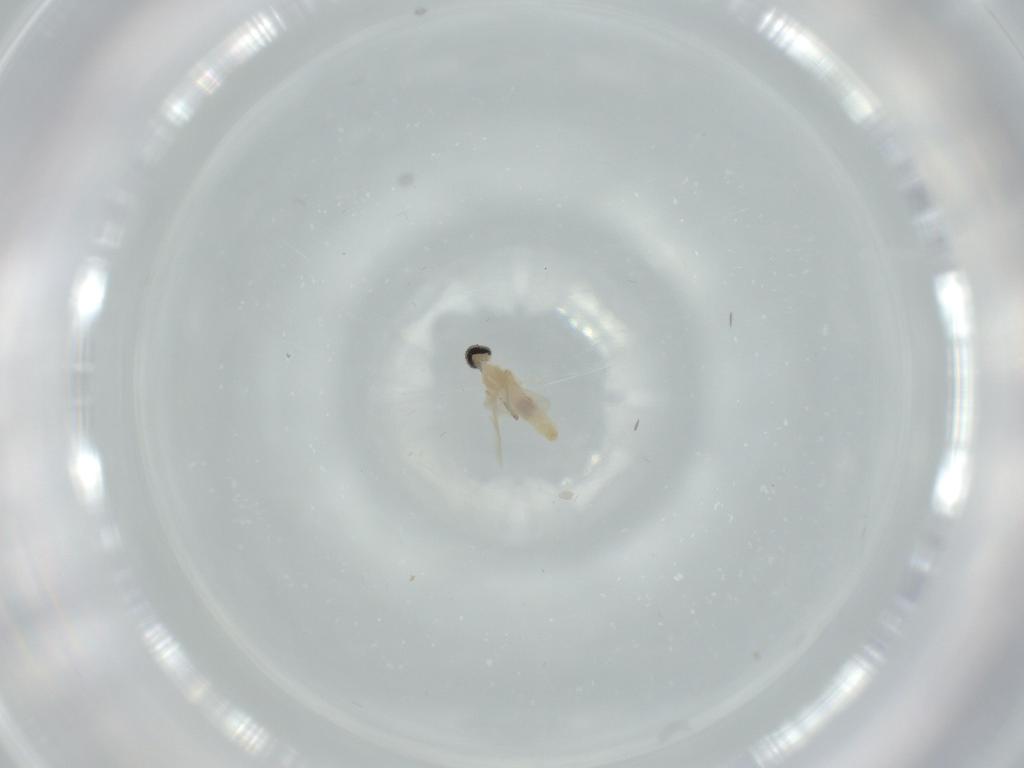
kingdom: Animalia
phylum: Arthropoda
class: Insecta
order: Diptera
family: Cecidomyiidae
